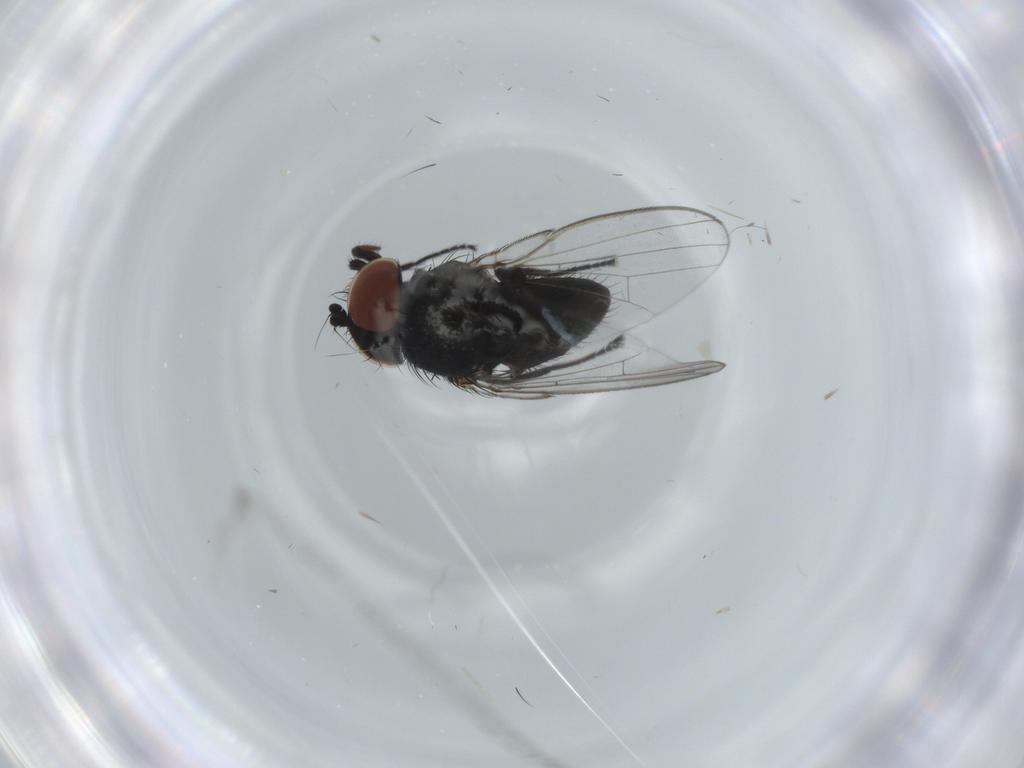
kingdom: Animalia
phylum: Arthropoda
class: Insecta
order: Diptera
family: Milichiidae
